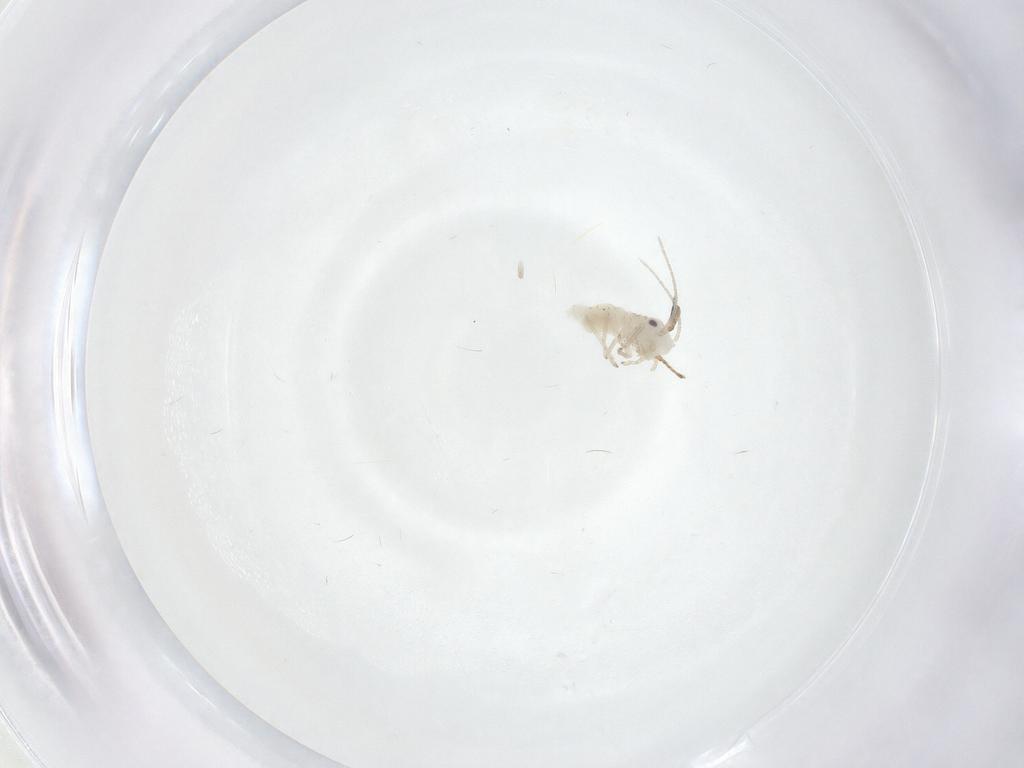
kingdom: Animalia
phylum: Arthropoda
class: Insecta
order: Psocodea
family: Caeciliusidae
